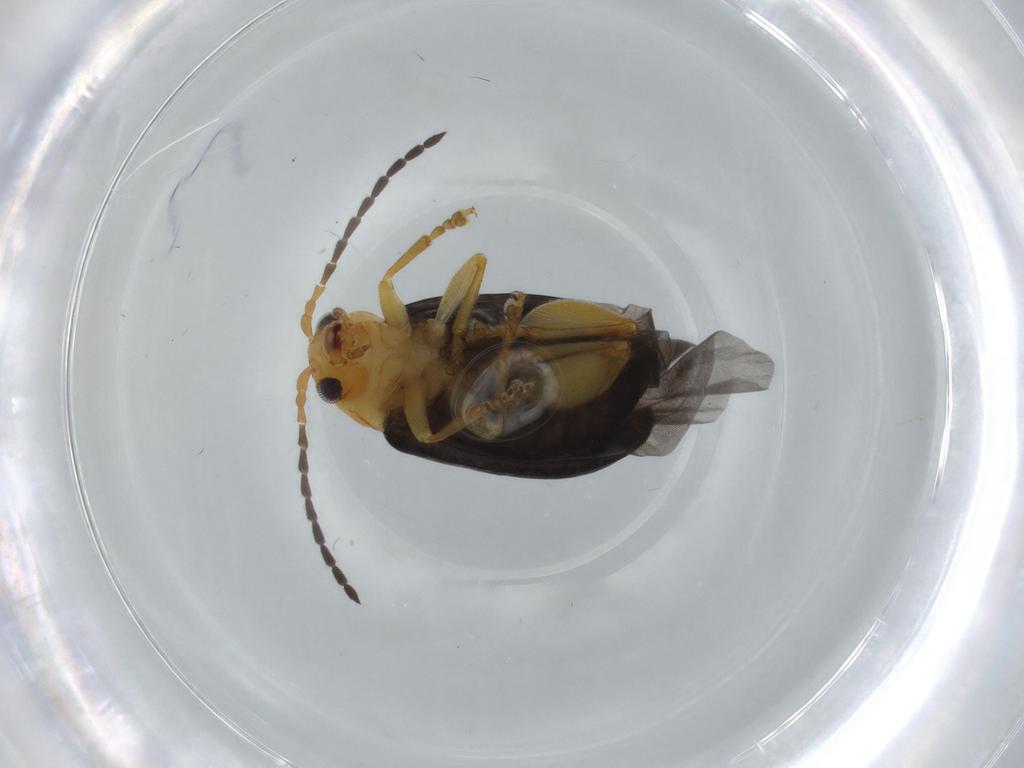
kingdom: Animalia
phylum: Arthropoda
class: Insecta
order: Coleoptera
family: Chrysomelidae
